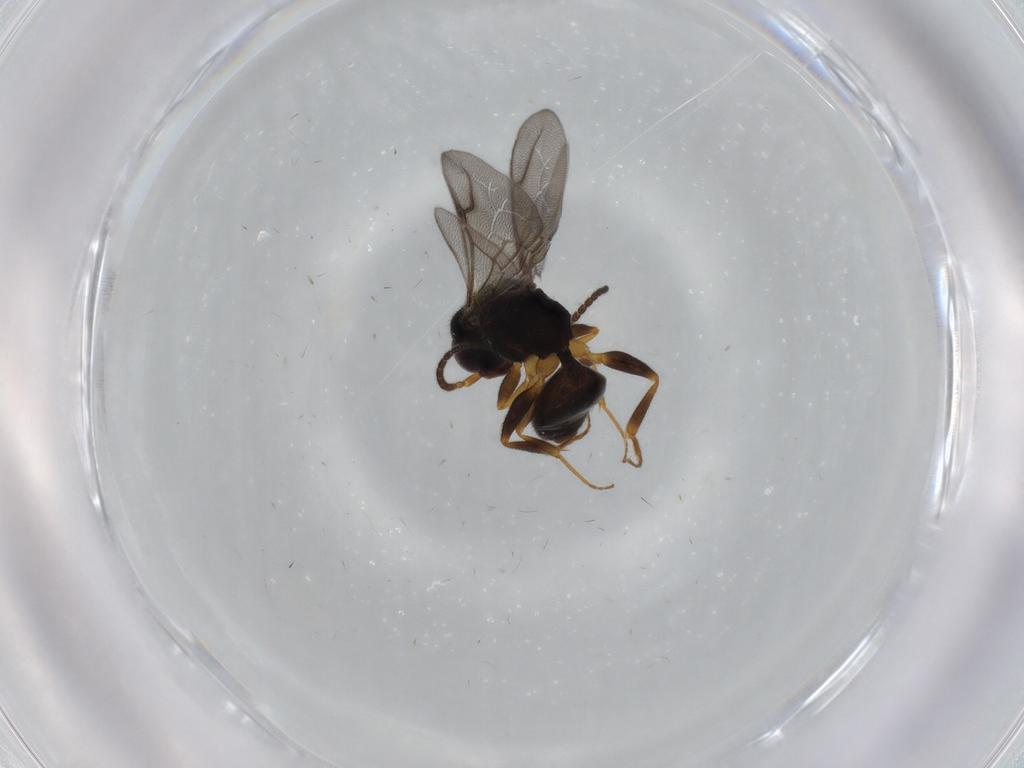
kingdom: Animalia
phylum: Arthropoda
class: Insecta
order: Hymenoptera
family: Bethylidae
